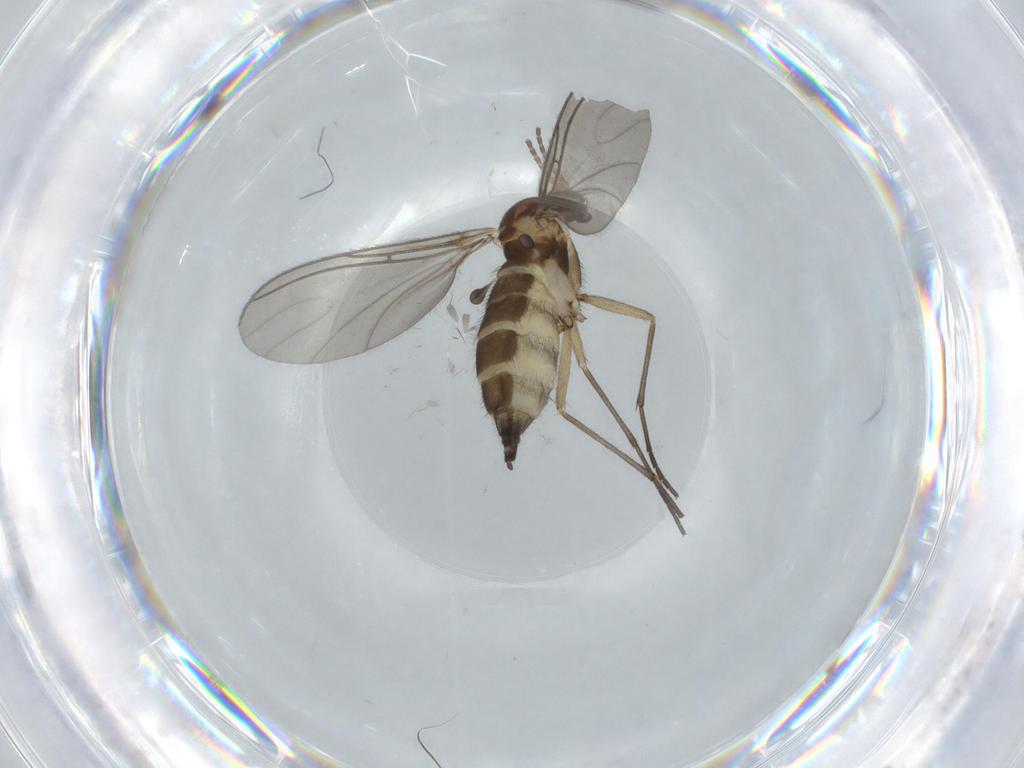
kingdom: Animalia
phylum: Arthropoda
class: Insecta
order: Diptera
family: Sciaridae
